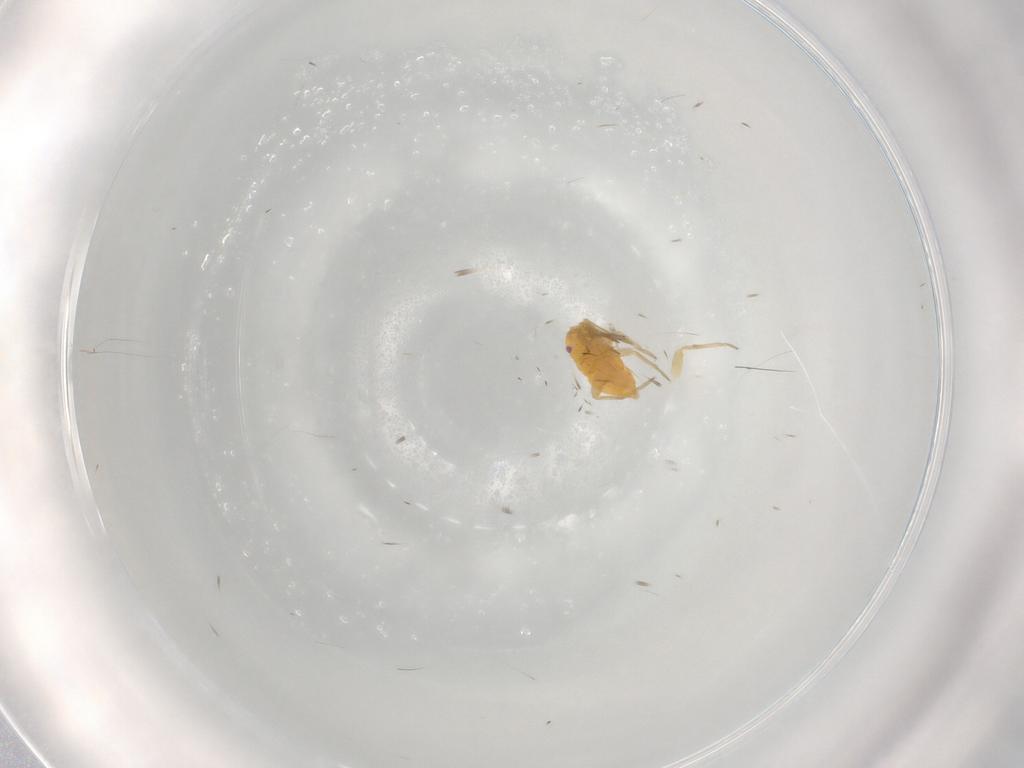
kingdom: Animalia
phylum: Arthropoda
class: Insecta
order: Hemiptera
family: Miridae
